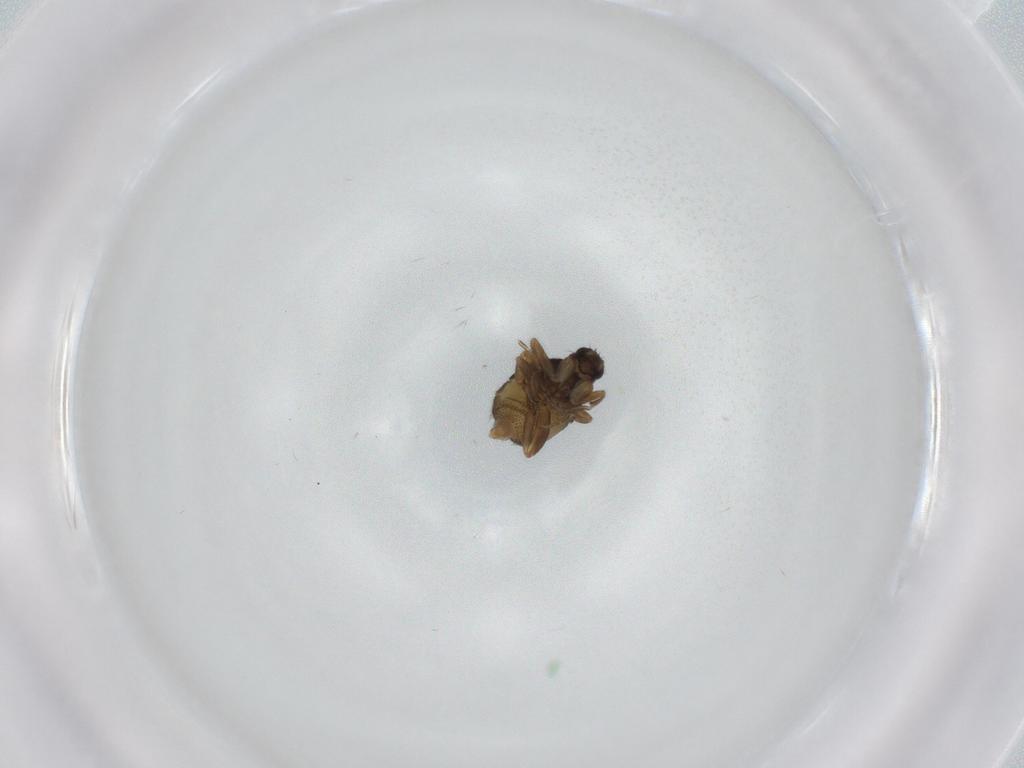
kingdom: Animalia
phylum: Arthropoda
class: Insecta
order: Diptera
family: Phoridae
